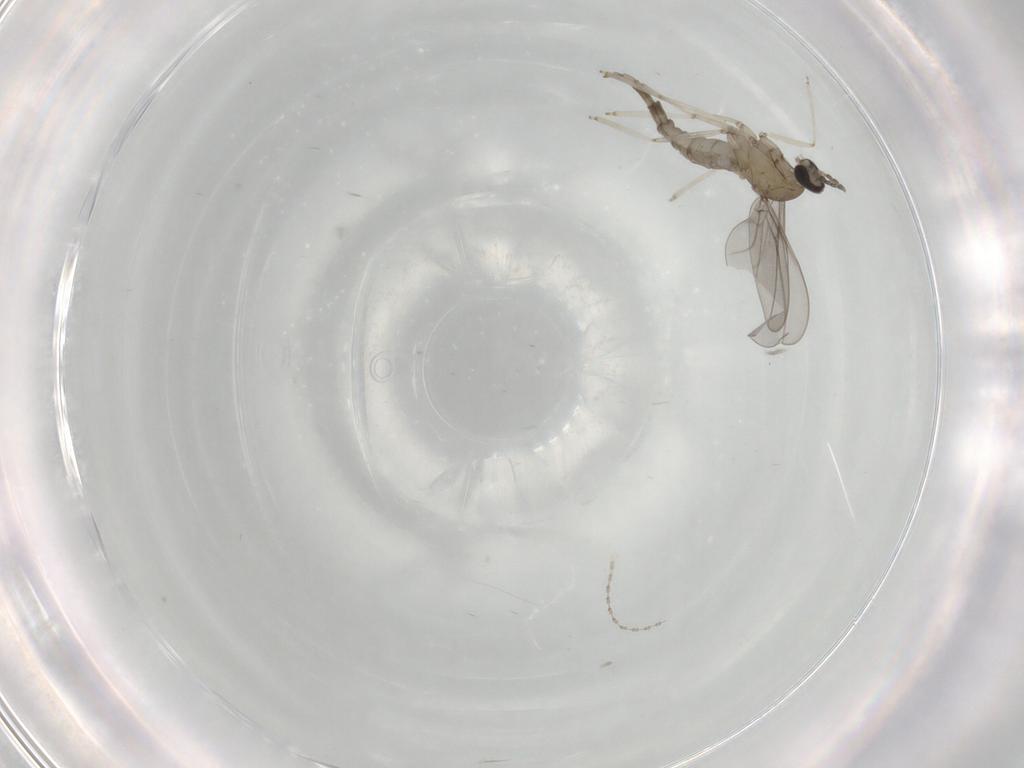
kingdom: Animalia
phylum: Arthropoda
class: Insecta
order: Diptera
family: Cecidomyiidae
